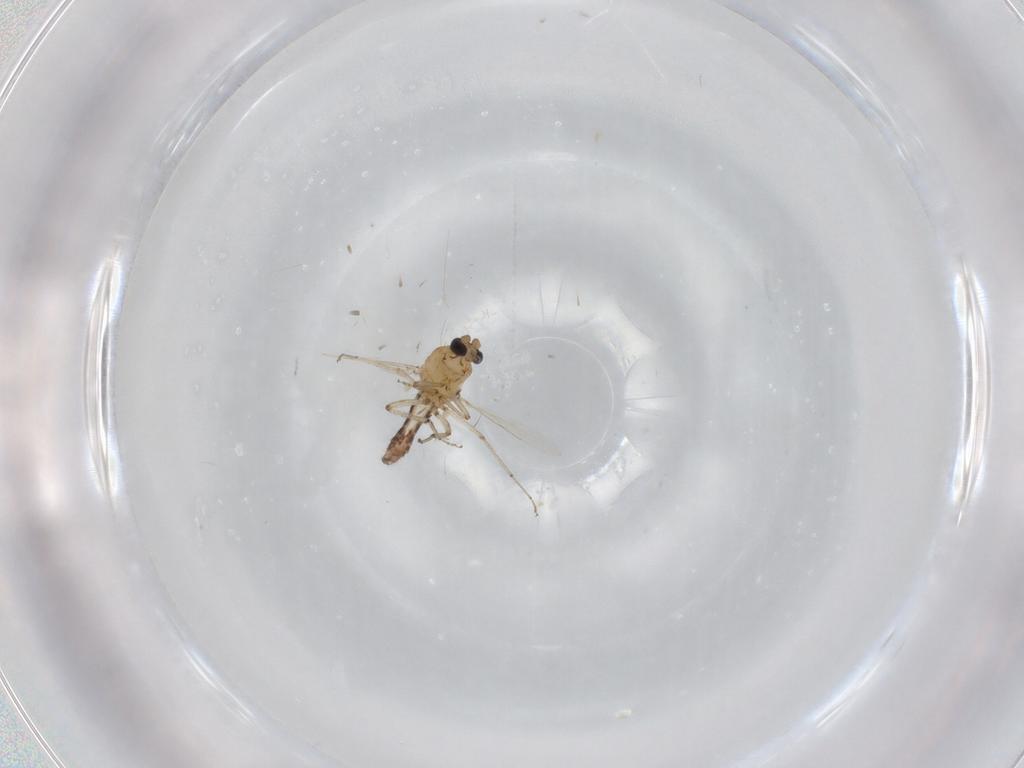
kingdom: Animalia
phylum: Arthropoda
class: Insecta
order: Diptera
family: Ceratopogonidae
